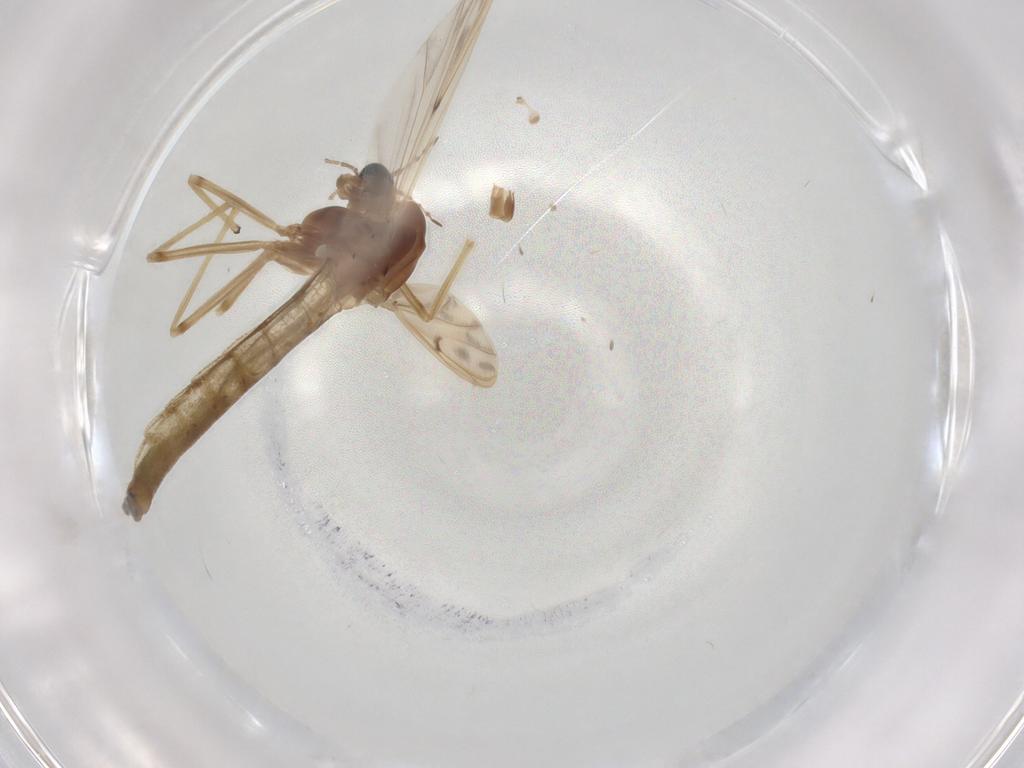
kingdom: Animalia
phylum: Arthropoda
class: Insecta
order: Diptera
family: Ceratopogonidae
